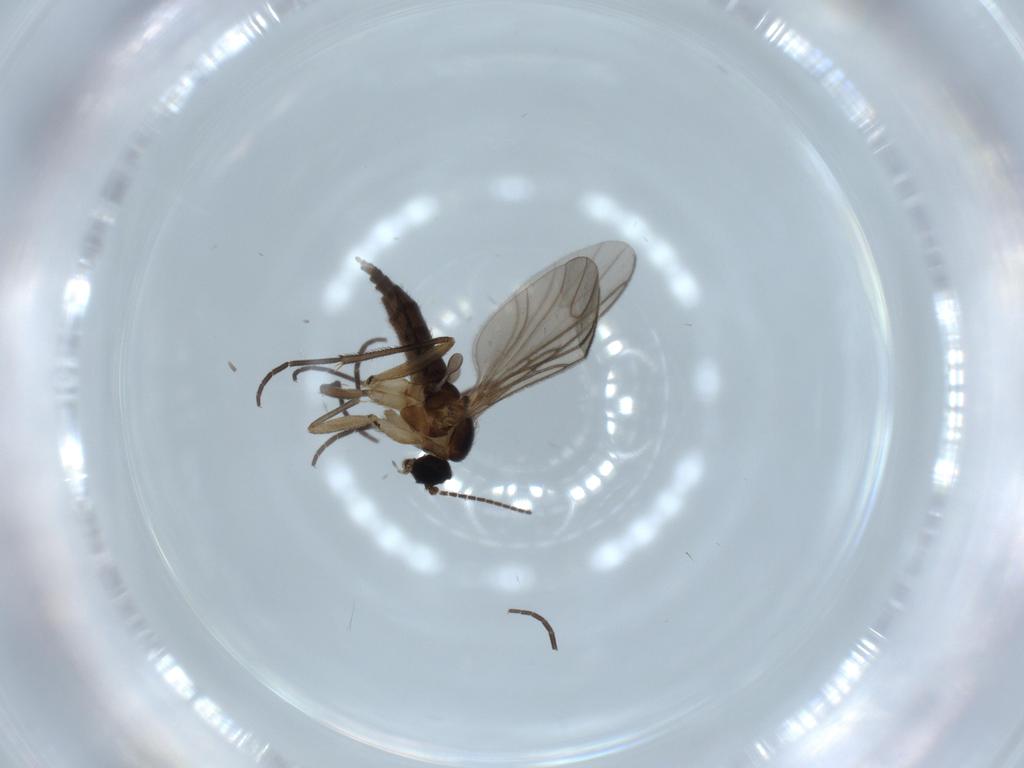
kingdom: Animalia
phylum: Arthropoda
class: Insecta
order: Diptera
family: Sciaridae
